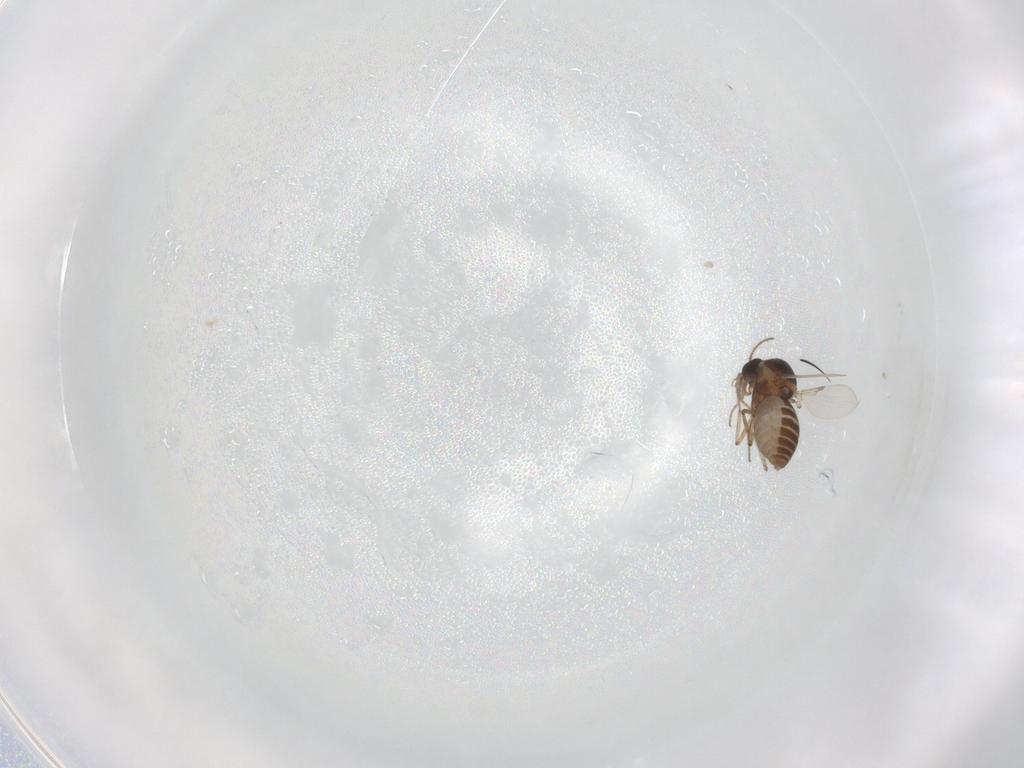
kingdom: Animalia
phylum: Arthropoda
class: Insecta
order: Diptera
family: Ceratopogonidae
